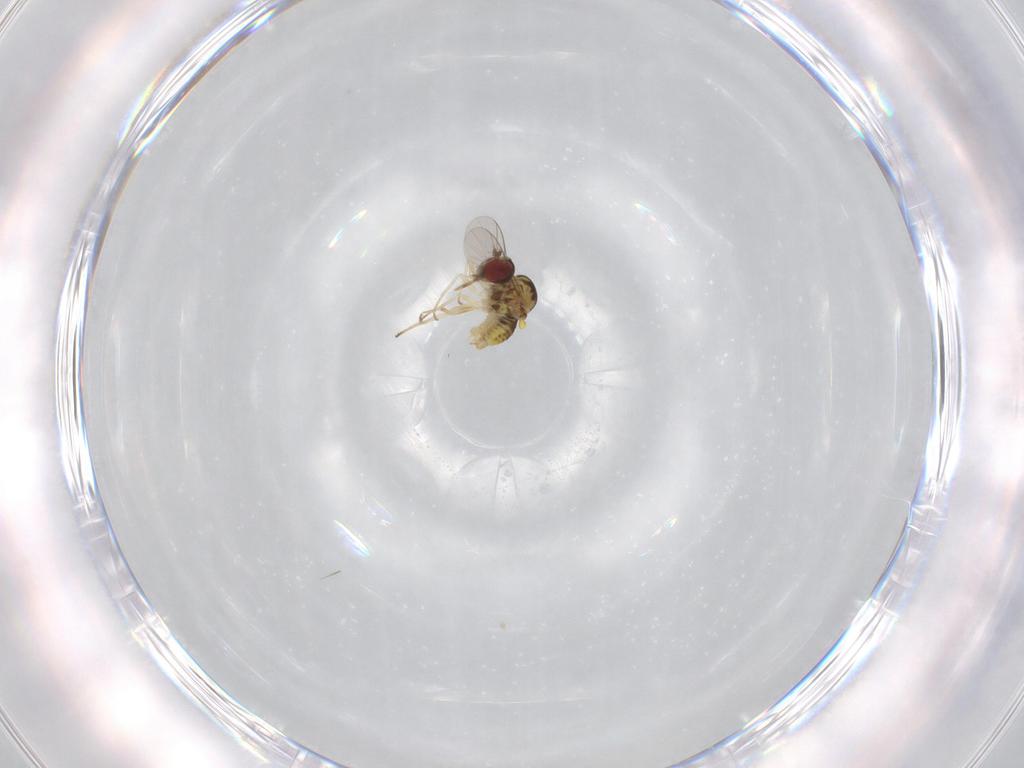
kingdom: Animalia
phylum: Arthropoda
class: Insecta
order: Diptera
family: Bombyliidae
